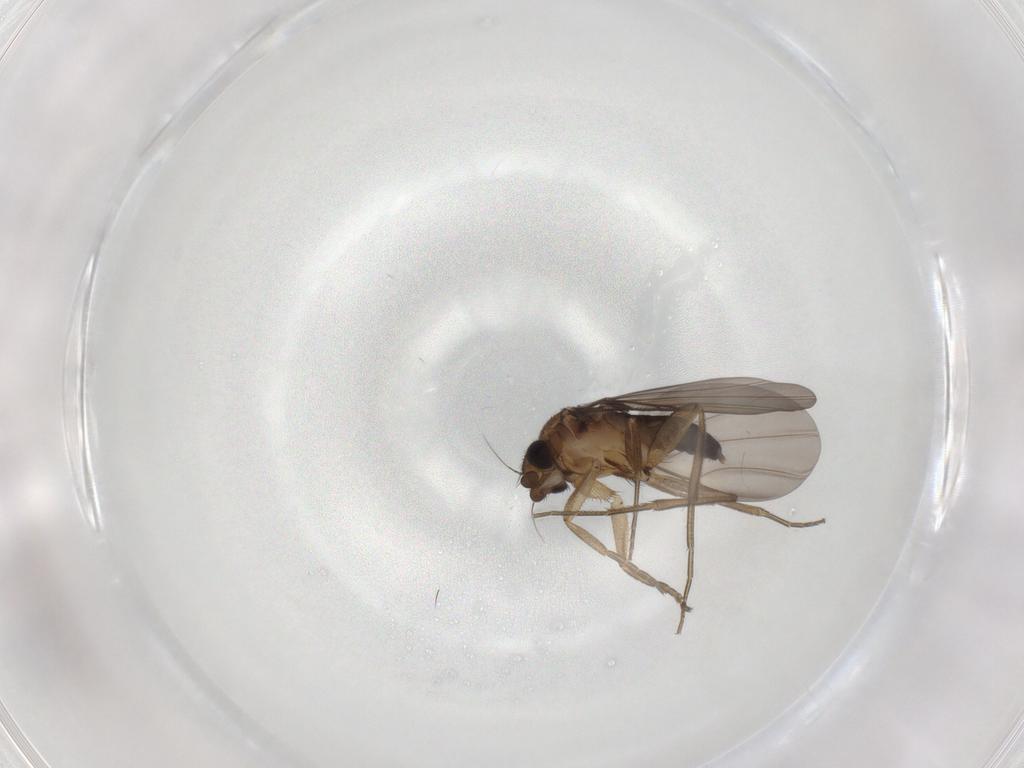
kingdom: Animalia
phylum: Arthropoda
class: Insecta
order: Diptera
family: Phoridae
